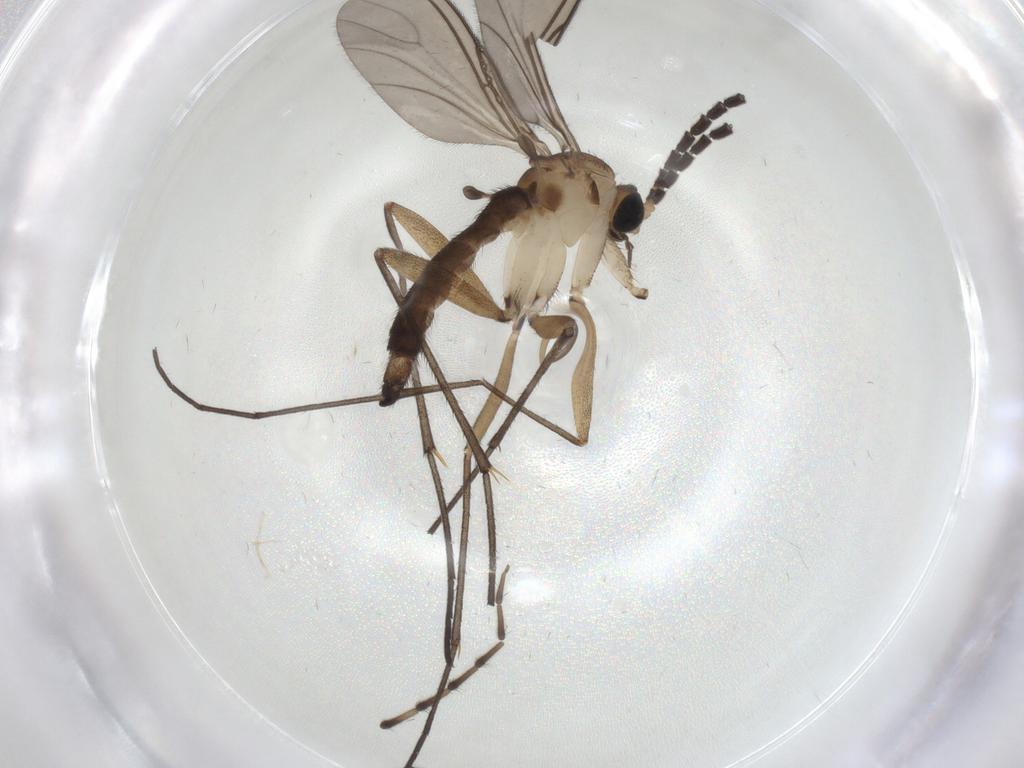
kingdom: Animalia
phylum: Arthropoda
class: Insecta
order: Diptera
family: Sciaridae
